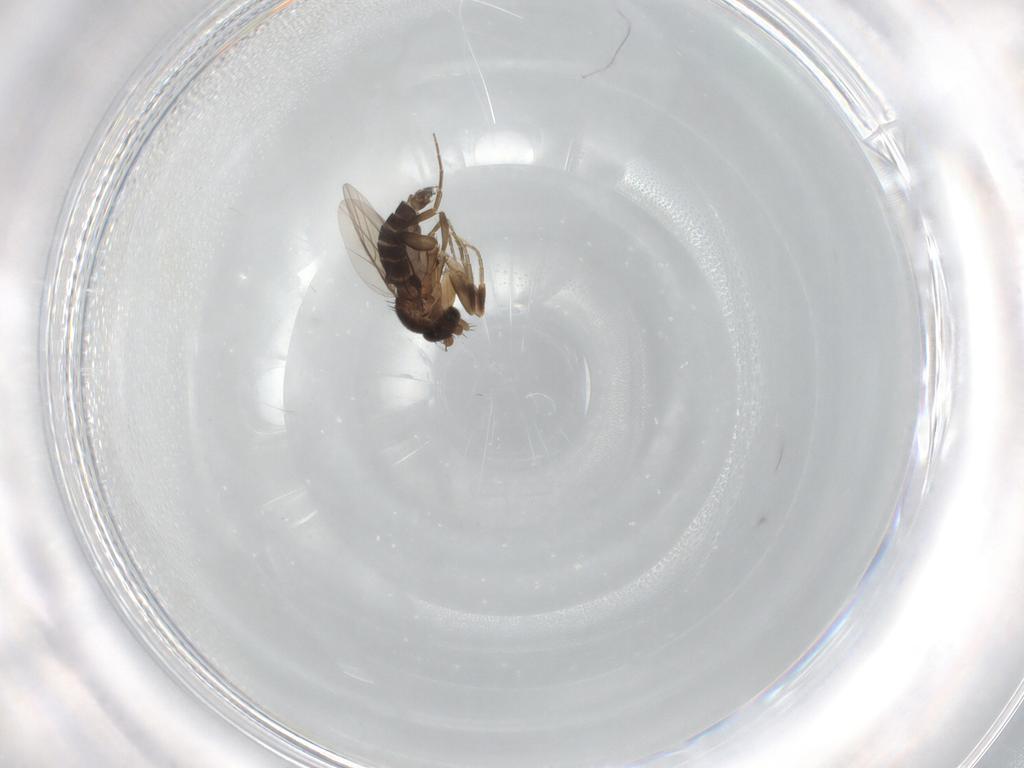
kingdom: Animalia
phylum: Arthropoda
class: Insecta
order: Diptera
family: Phoridae
